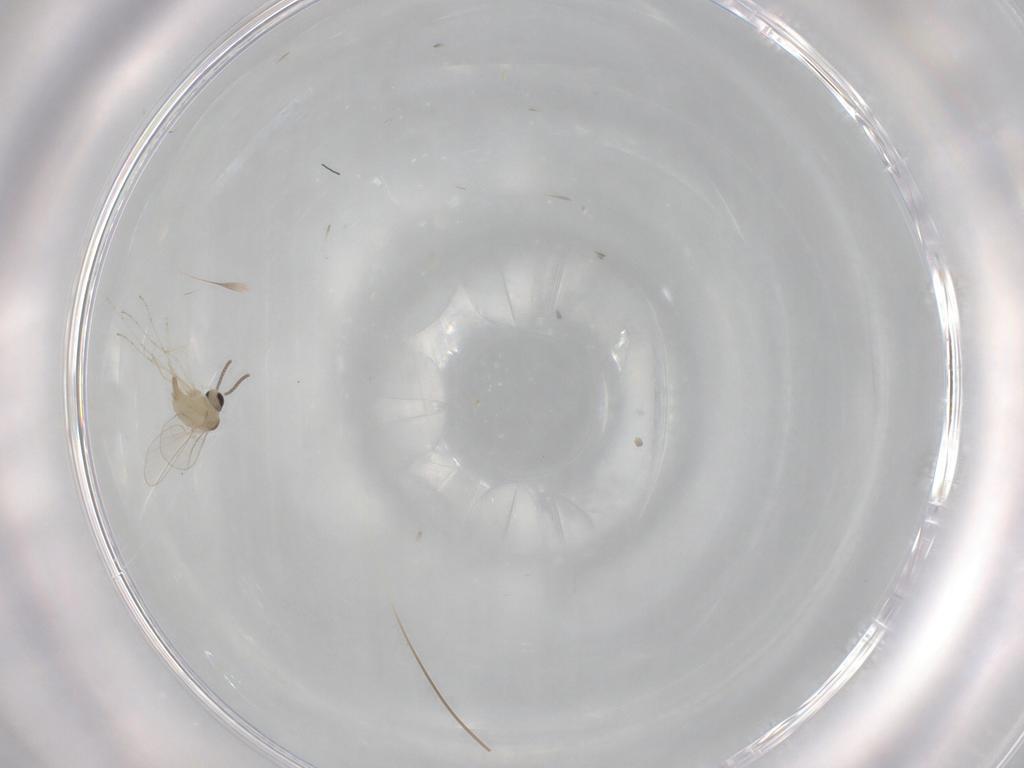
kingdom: Animalia
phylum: Arthropoda
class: Insecta
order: Diptera
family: Cecidomyiidae
